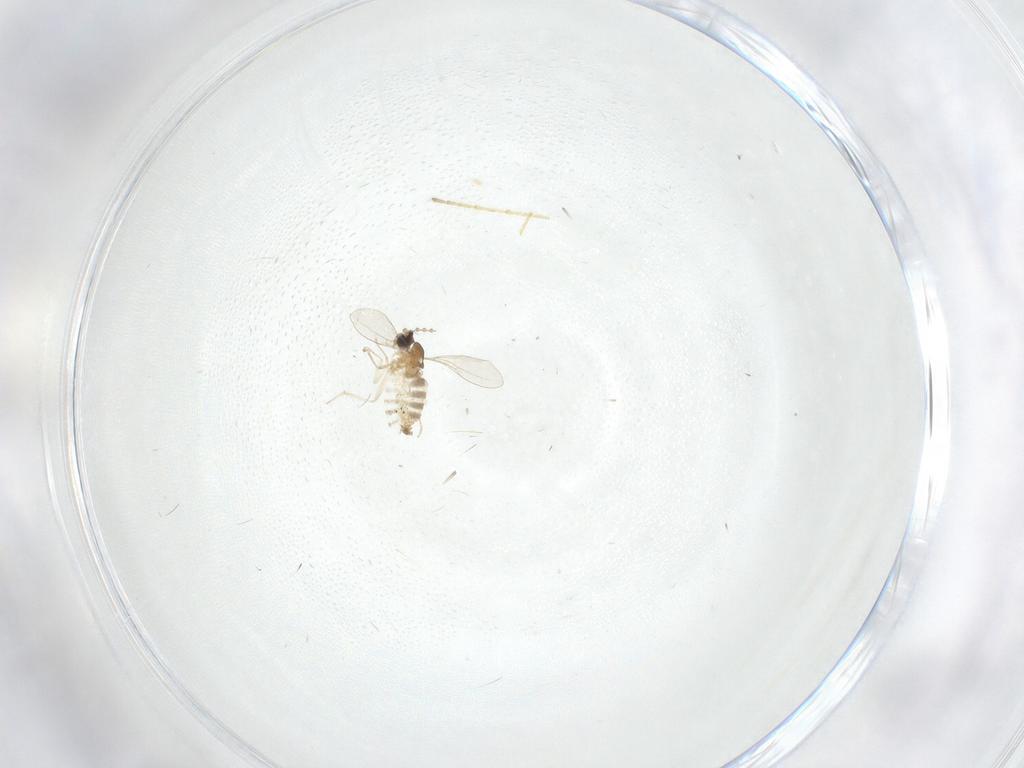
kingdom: Animalia
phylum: Arthropoda
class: Insecta
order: Diptera
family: Cecidomyiidae
